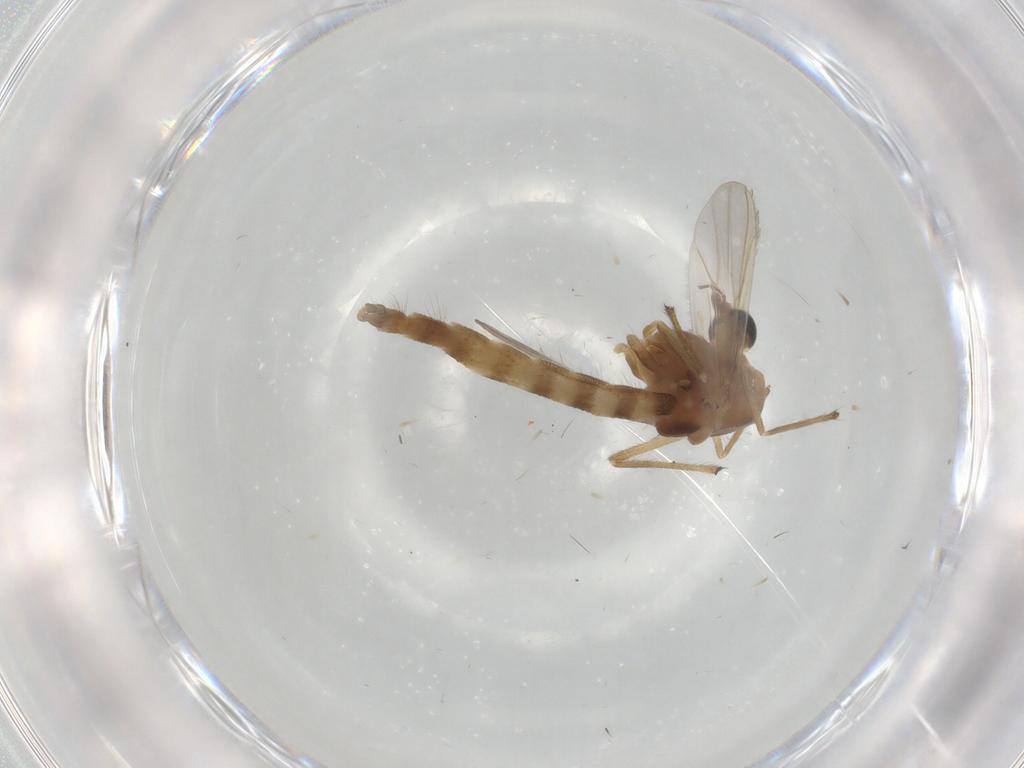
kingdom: Animalia
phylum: Arthropoda
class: Insecta
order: Diptera
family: Chironomidae
